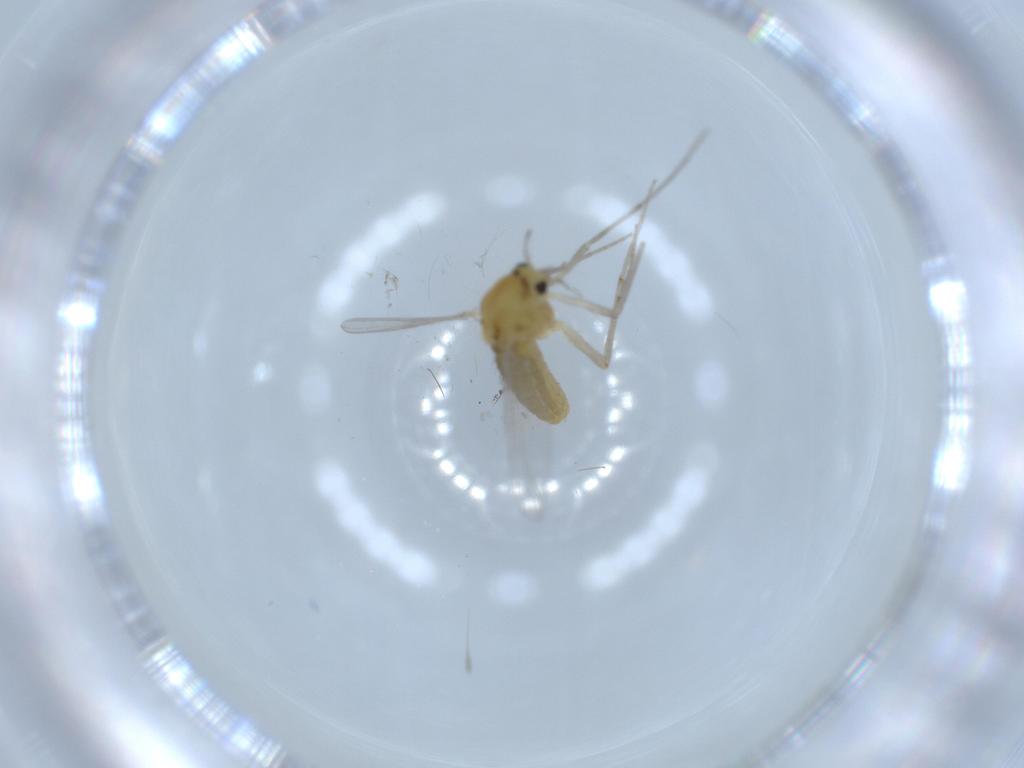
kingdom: Animalia
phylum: Arthropoda
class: Insecta
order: Diptera
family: Chironomidae
